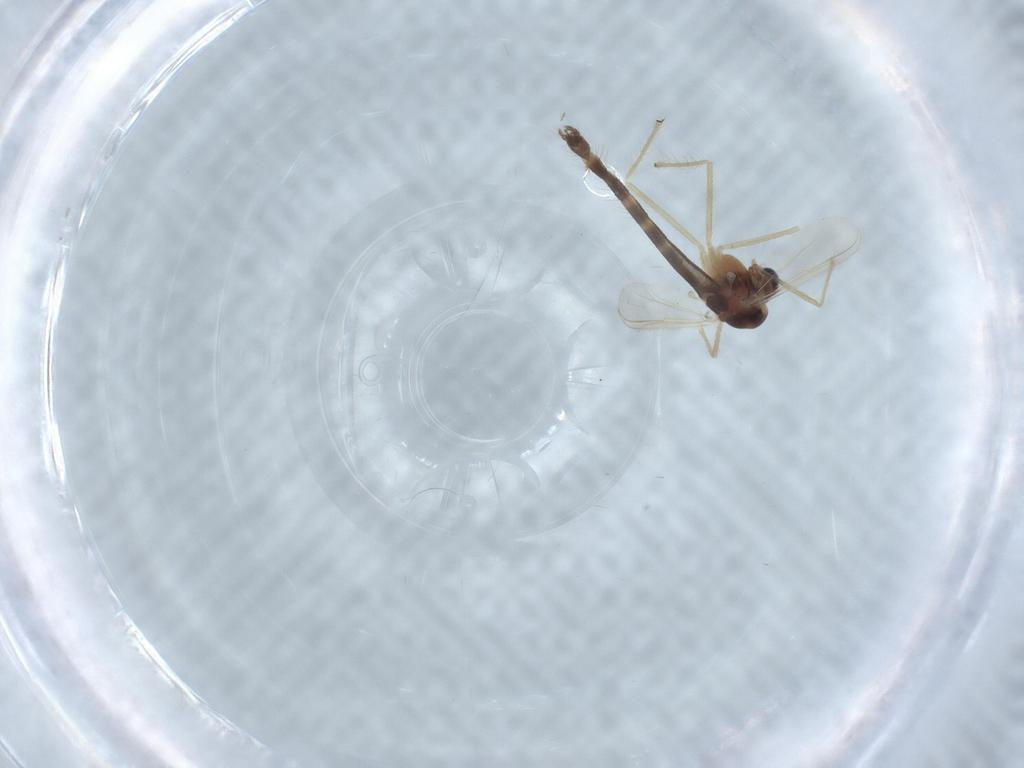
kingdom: Animalia
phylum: Arthropoda
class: Insecta
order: Diptera
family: Chironomidae
